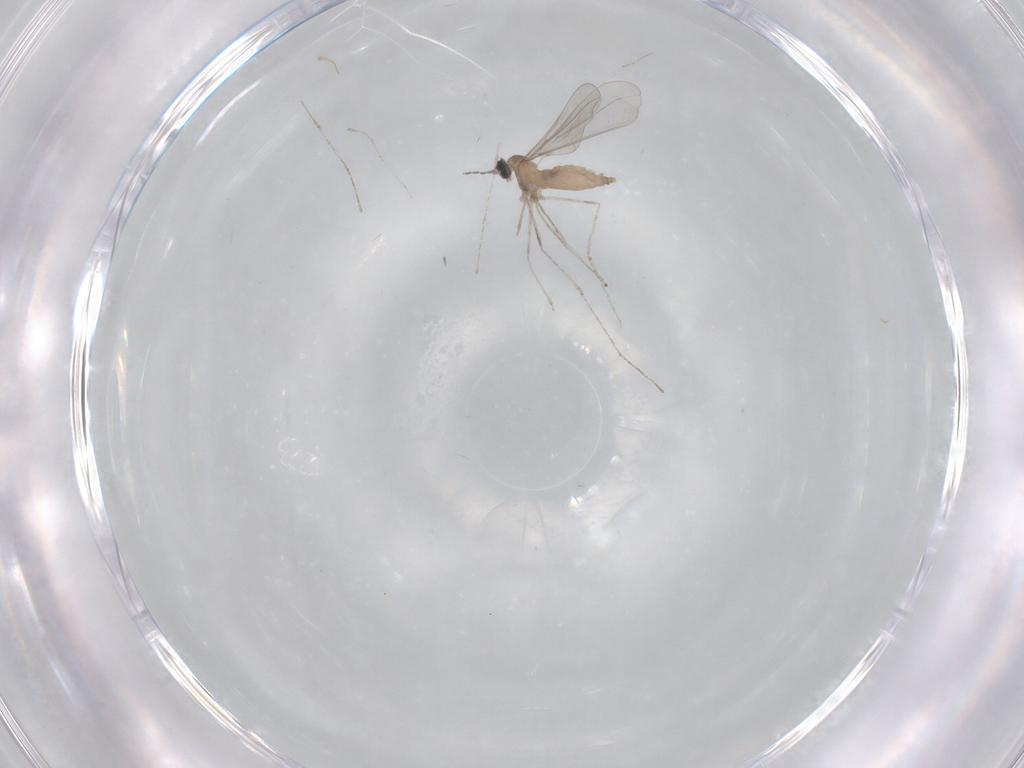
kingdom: Animalia
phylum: Arthropoda
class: Insecta
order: Diptera
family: Cecidomyiidae
